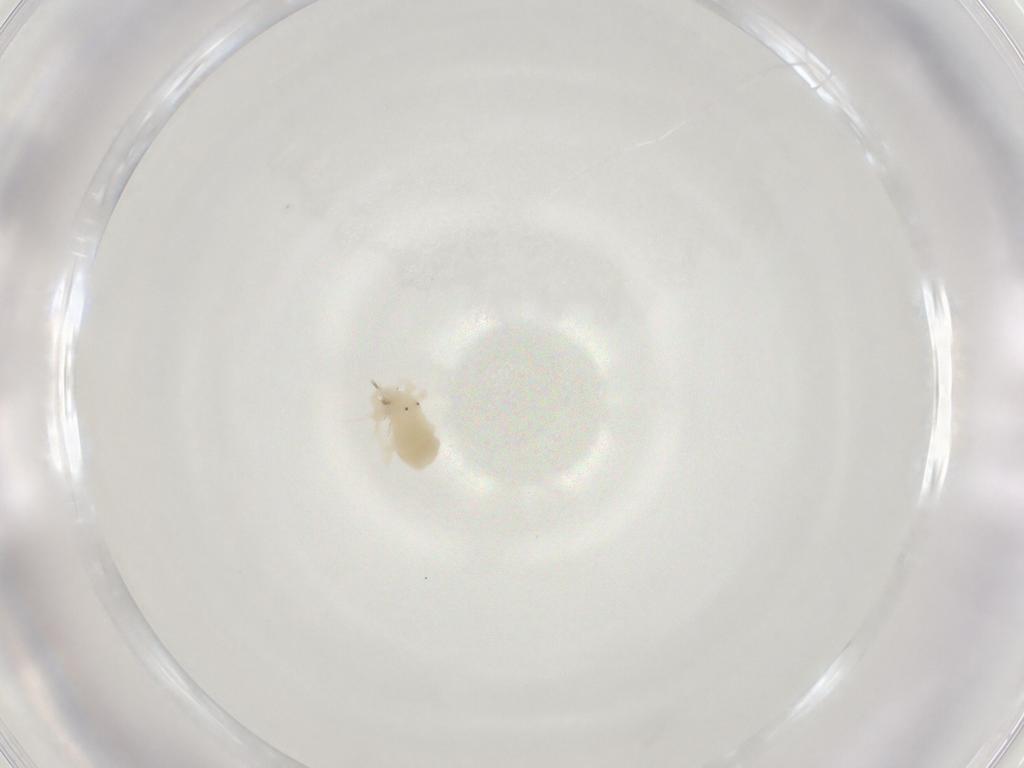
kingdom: Animalia
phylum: Arthropoda
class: Arachnida
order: Trombidiformes
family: Anystidae
